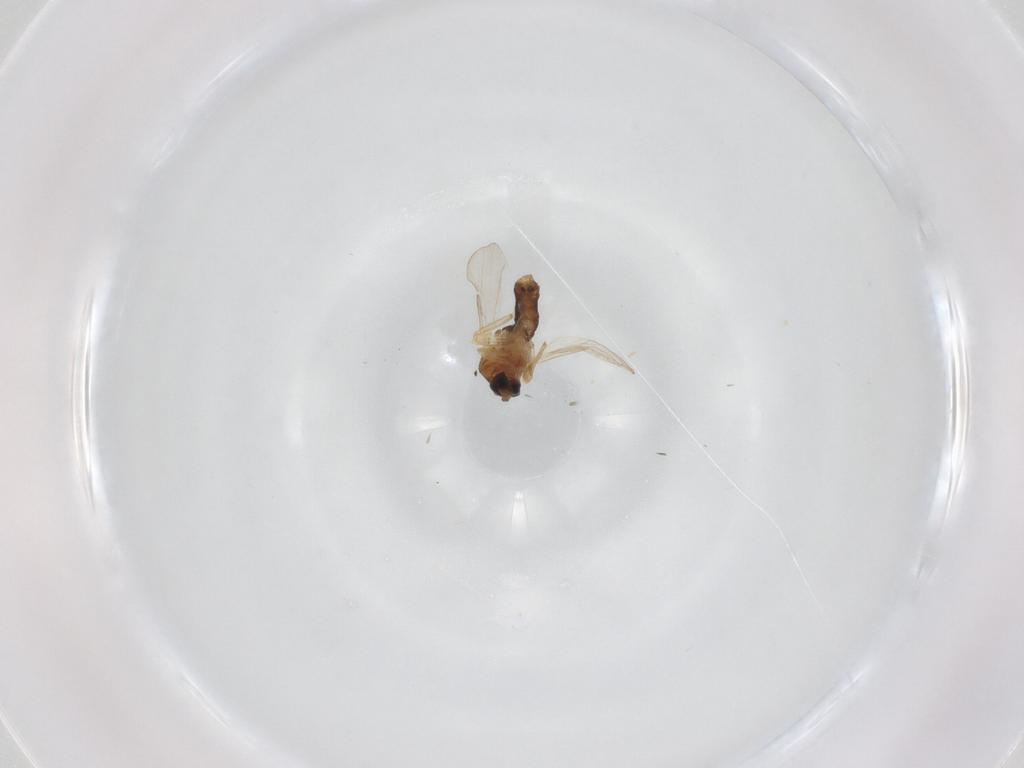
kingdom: Animalia
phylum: Arthropoda
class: Insecta
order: Diptera
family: Ceratopogonidae
